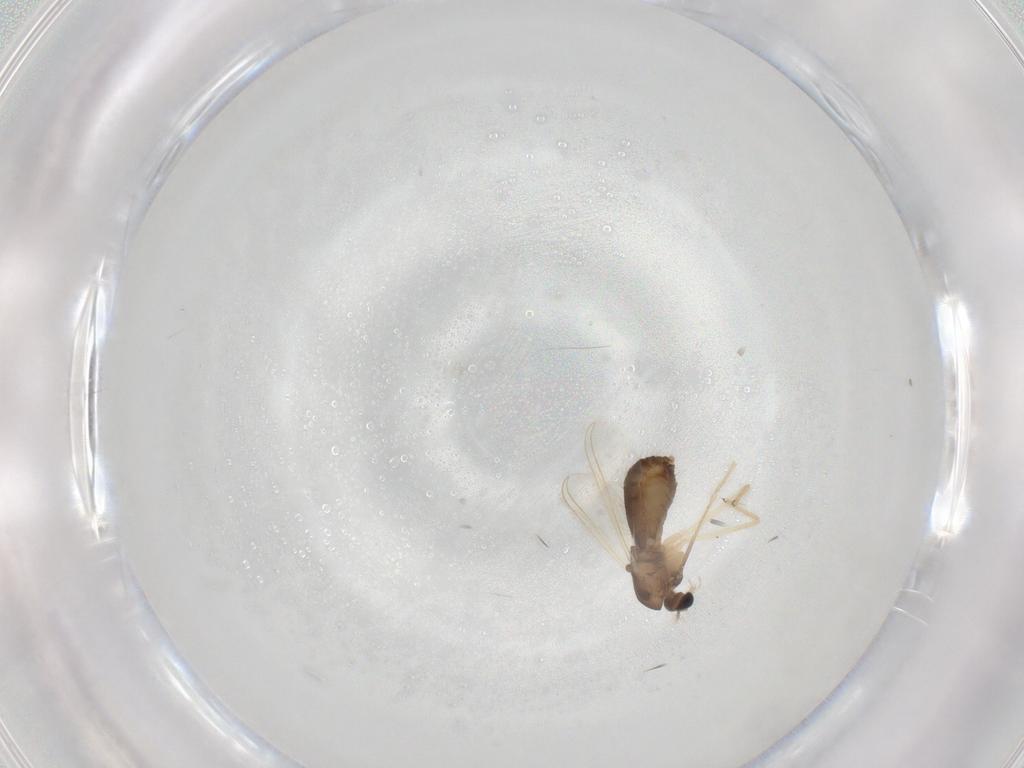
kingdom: Animalia
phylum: Arthropoda
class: Insecta
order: Diptera
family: Chironomidae
